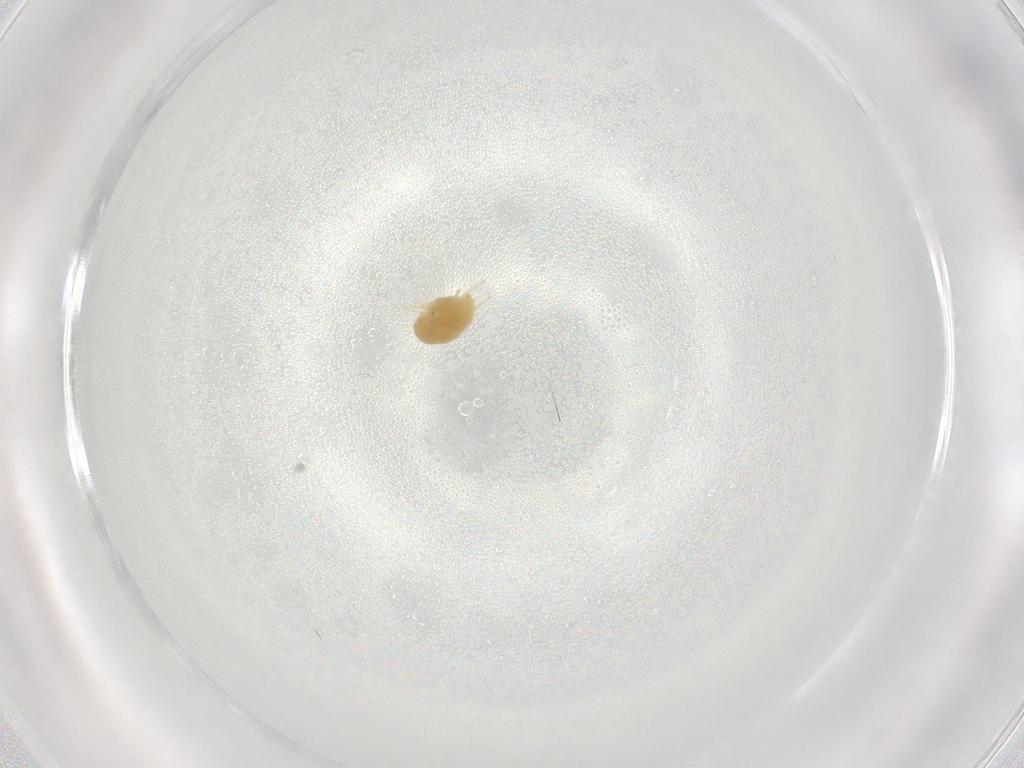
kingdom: Animalia
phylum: Arthropoda
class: Arachnida
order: Trombidiformes
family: Tetranychidae
